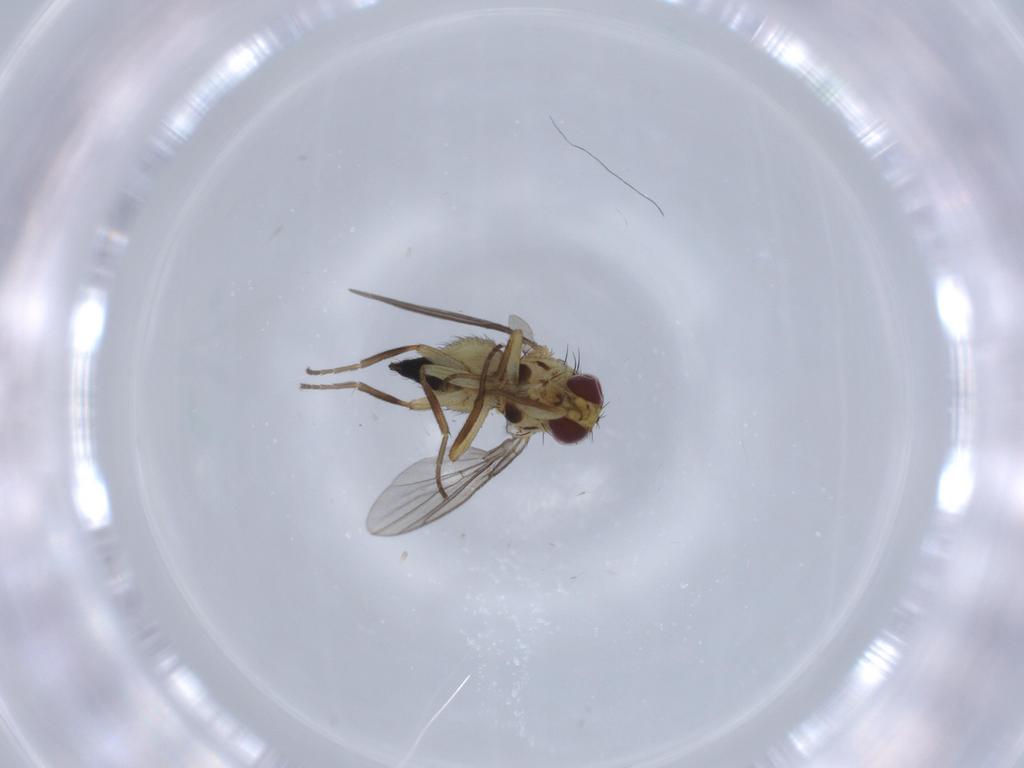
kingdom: Animalia
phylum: Arthropoda
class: Insecta
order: Diptera
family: Agromyzidae
